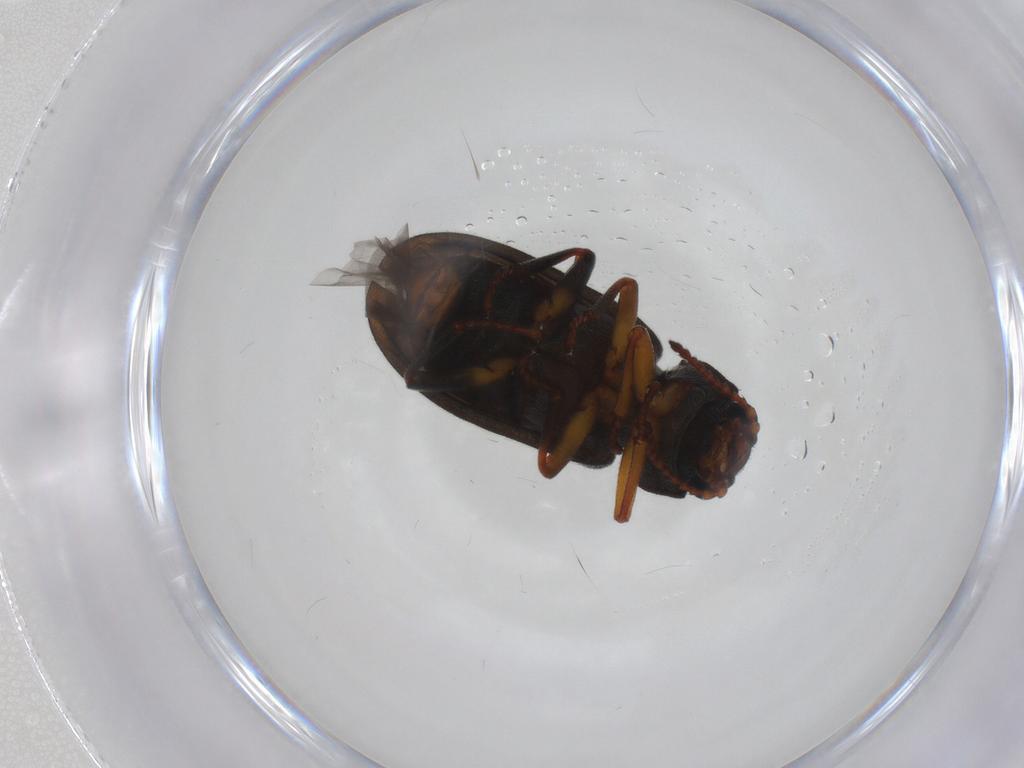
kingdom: Animalia
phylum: Arthropoda
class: Insecta
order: Coleoptera
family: Melyridae
